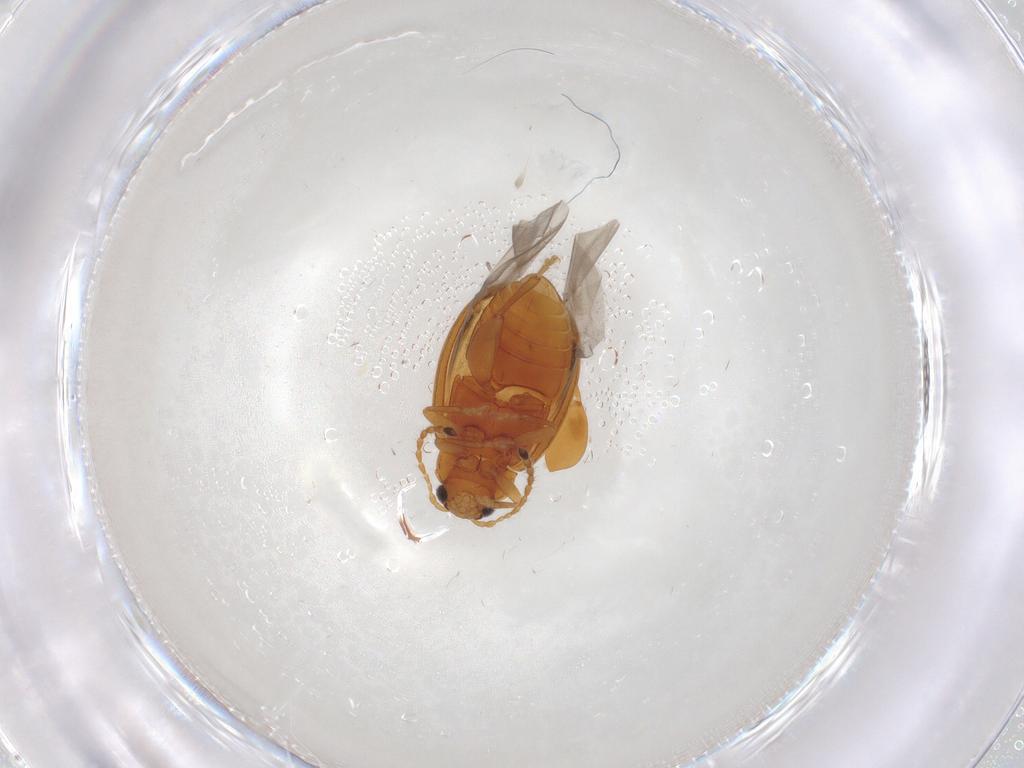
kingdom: Animalia
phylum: Arthropoda
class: Insecta
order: Coleoptera
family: Chrysomelidae
